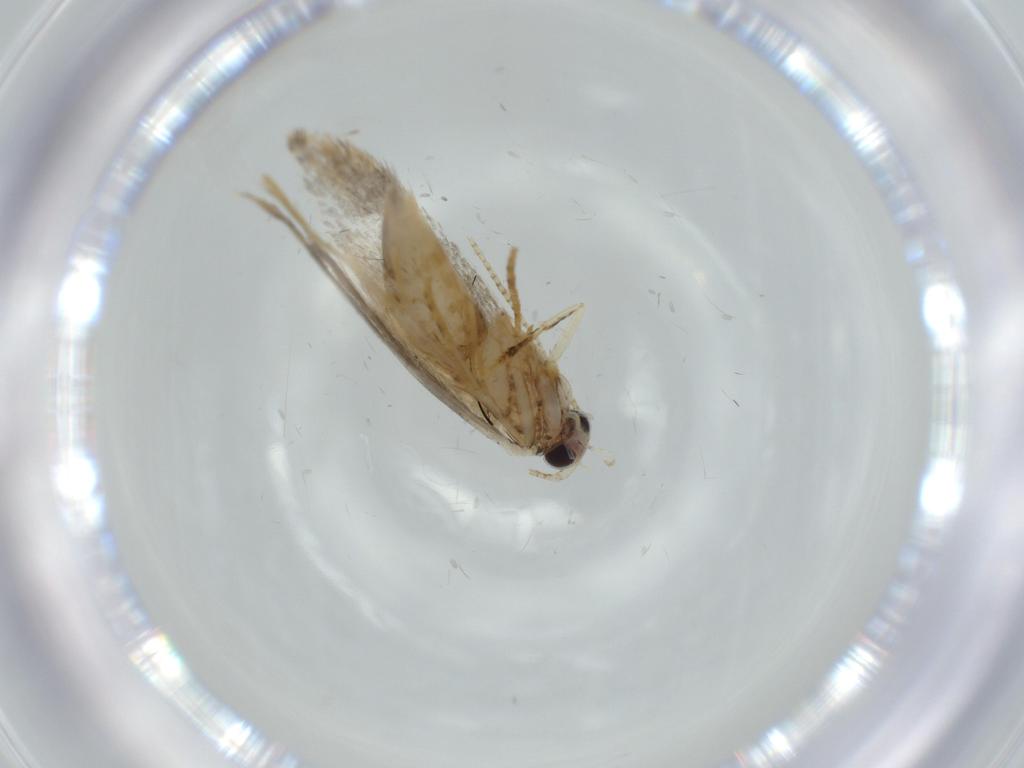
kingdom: Animalia
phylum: Arthropoda
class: Insecta
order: Lepidoptera
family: Tineidae
